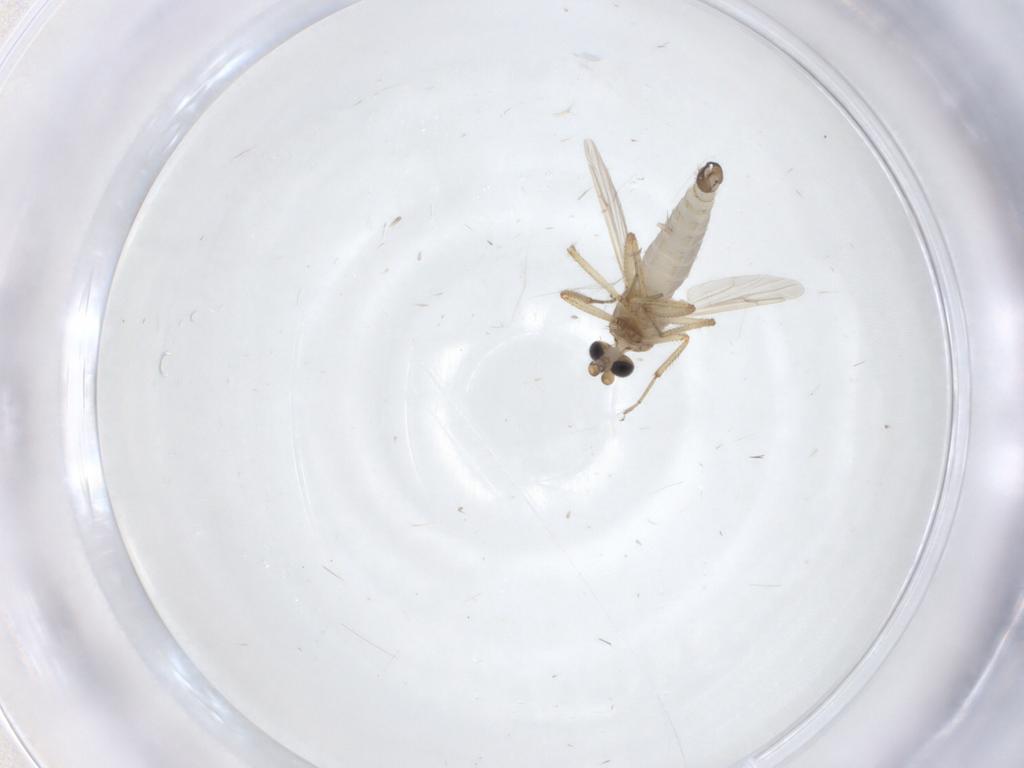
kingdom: Animalia
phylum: Arthropoda
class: Insecta
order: Diptera
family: Ceratopogonidae
